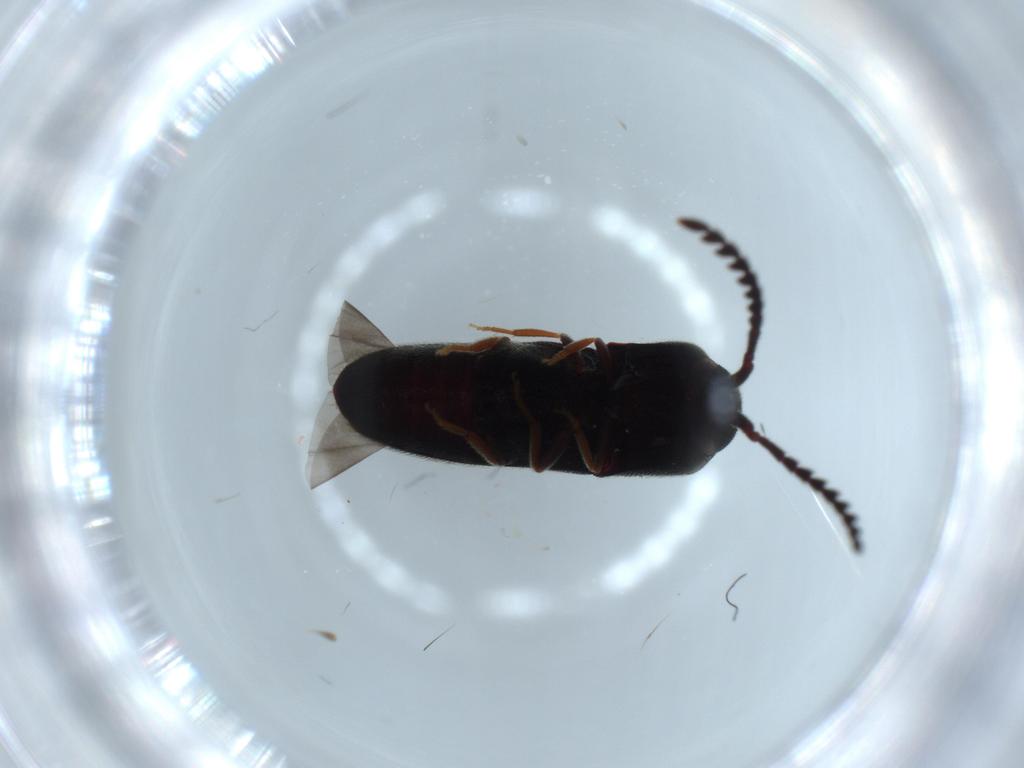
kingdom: Animalia
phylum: Arthropoda
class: Insecta
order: Coleoptera
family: Eucnemidae
